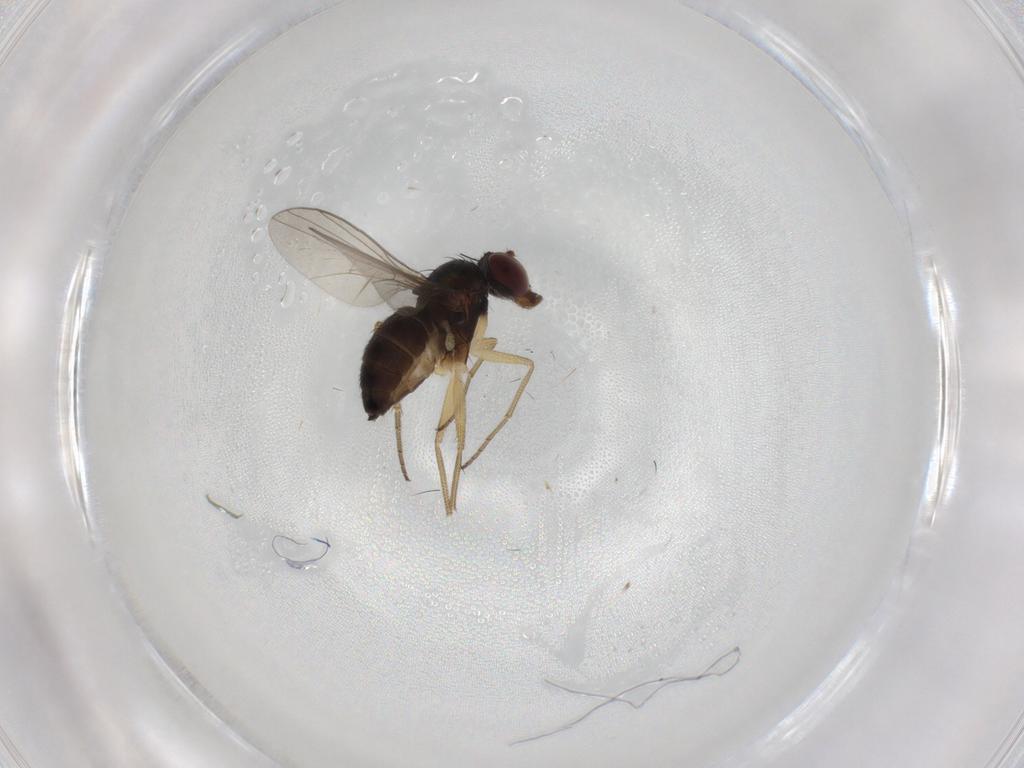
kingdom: Animalia
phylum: Arthropoda
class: Insecta
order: Diptera
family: Dolichopodidae
